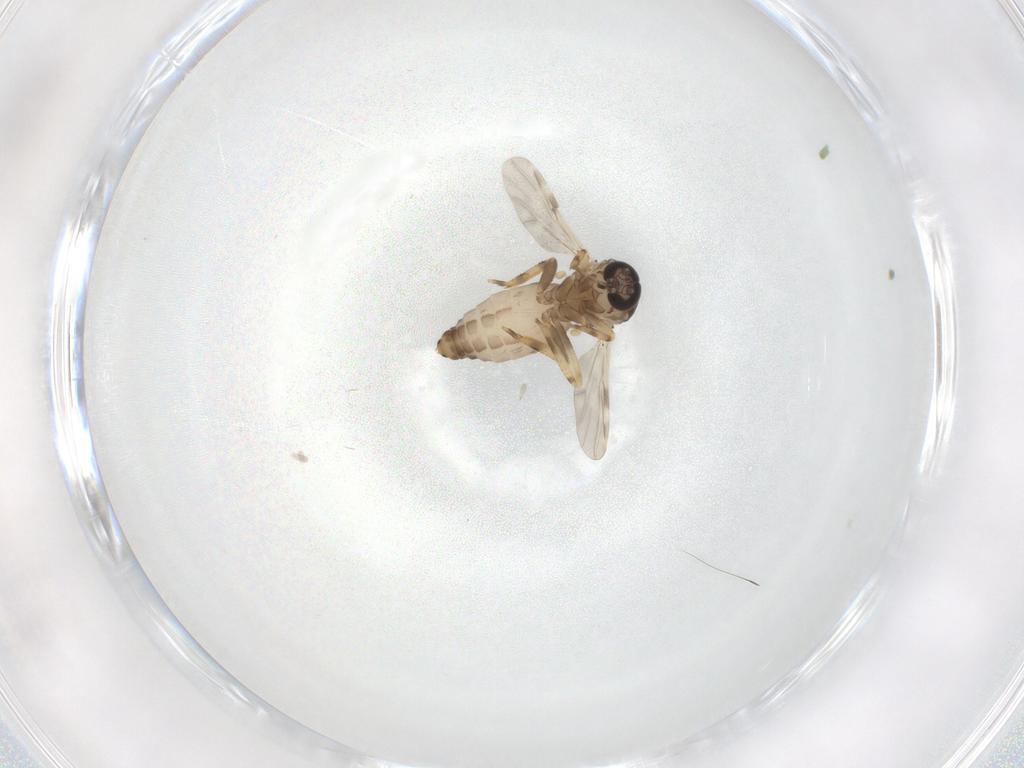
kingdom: Animalia
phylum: Arthropoda
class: Insecta
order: Diptera
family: Ceratopogonidae
